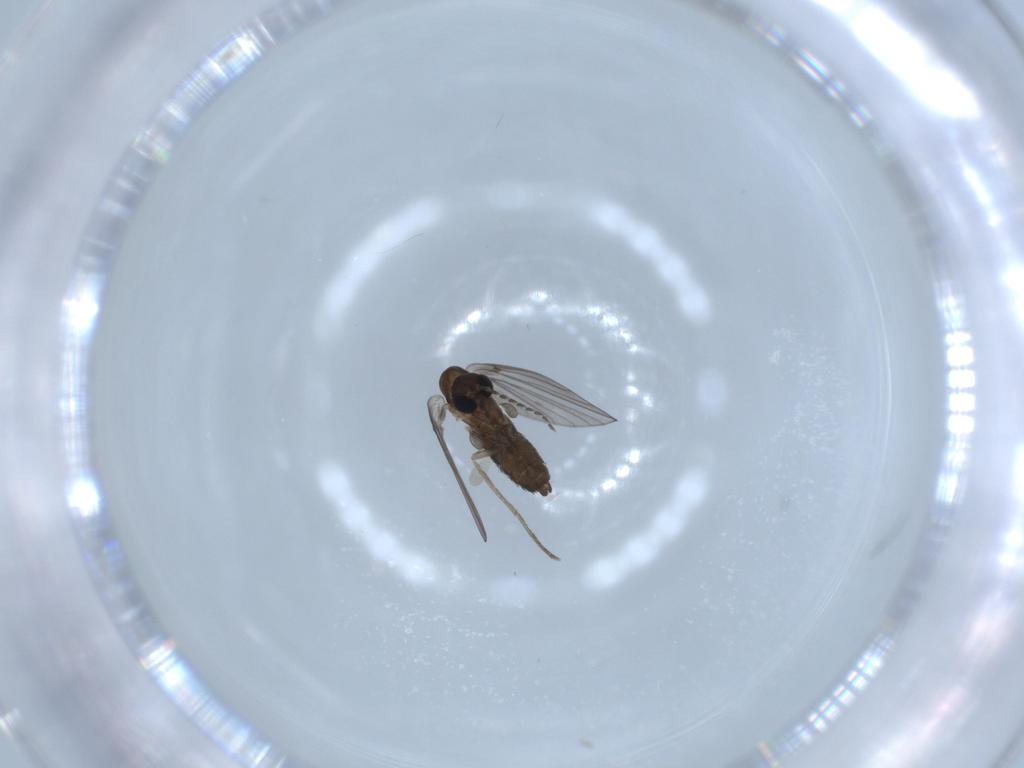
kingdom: Animalia
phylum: Arthropoda
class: Insecta
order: Diptera
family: Psychodidae
